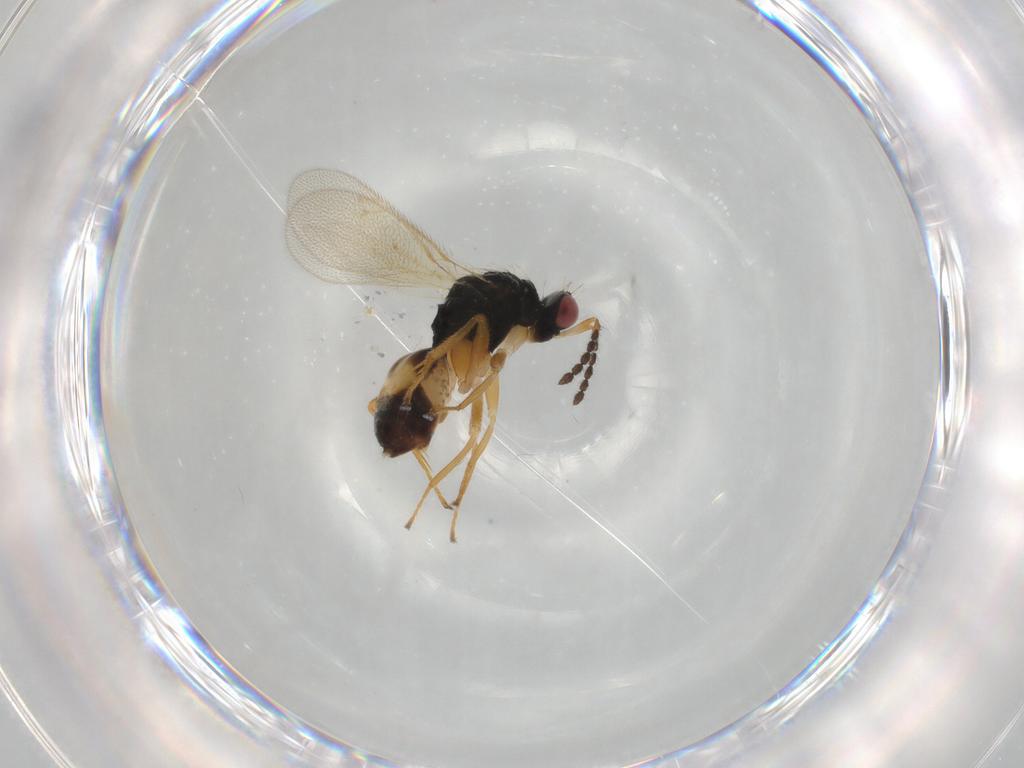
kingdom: Animalia
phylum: Arthropoda
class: Insecta
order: Hymenoptera
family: Eulophidae
